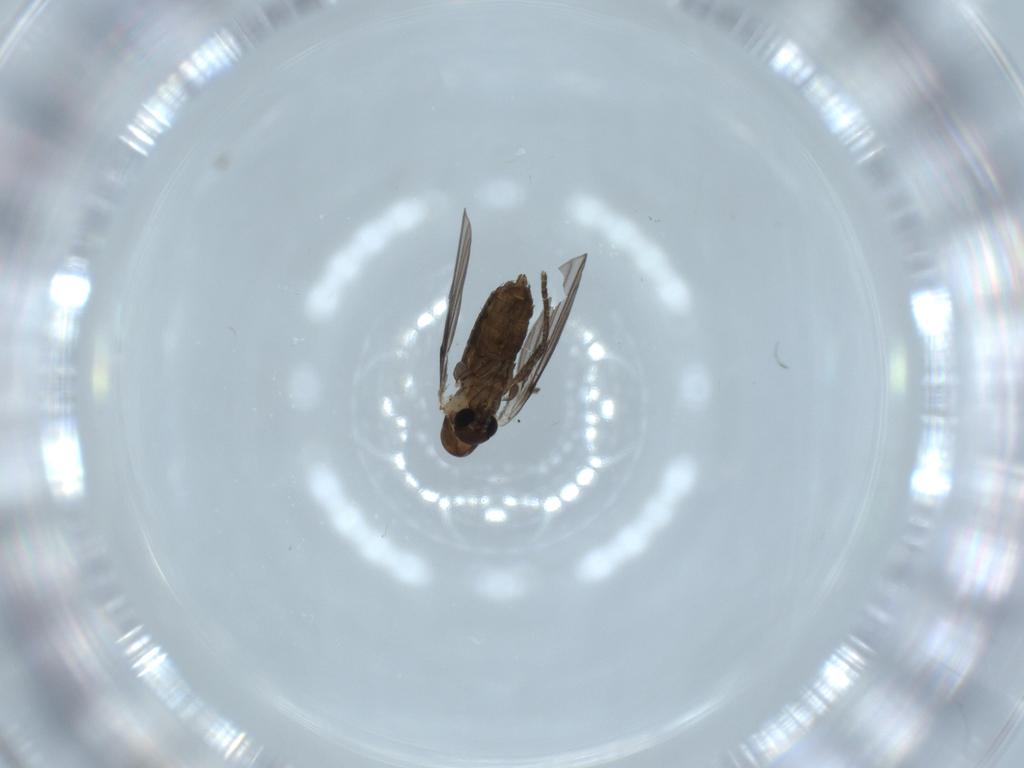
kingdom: Animalia
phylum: Arthropoda
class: Insecta
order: Diptera
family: Psychodidae
